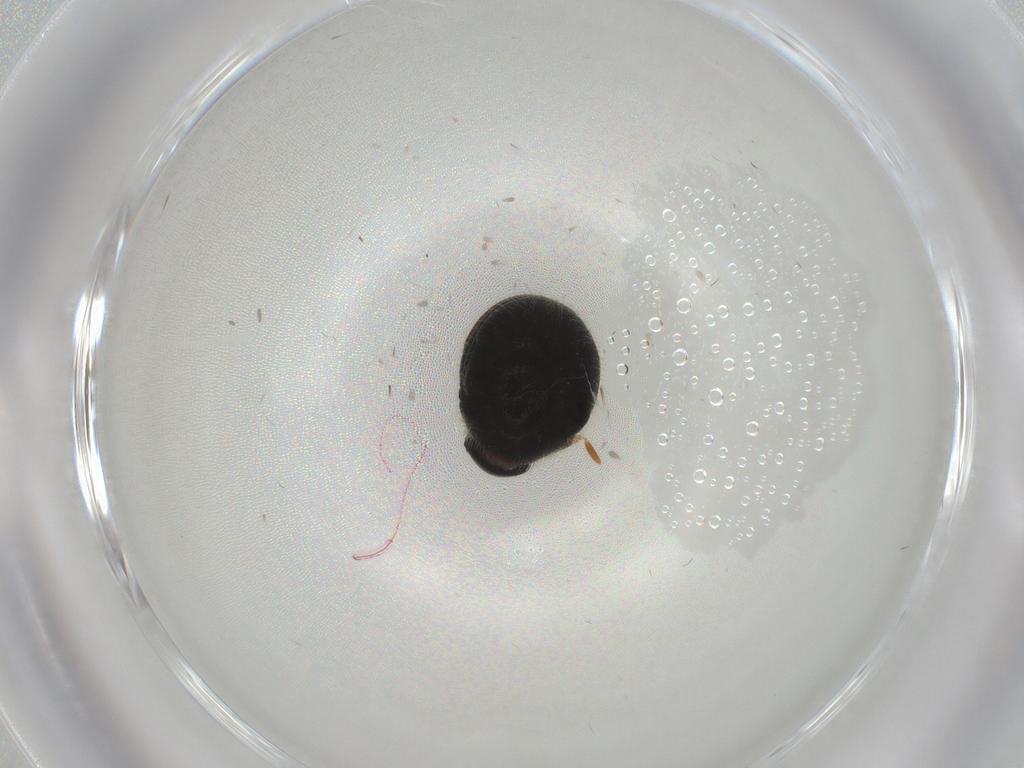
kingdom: Animalia
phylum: Arthropoda
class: Insecta
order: Coleoptera
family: Ptinidae
